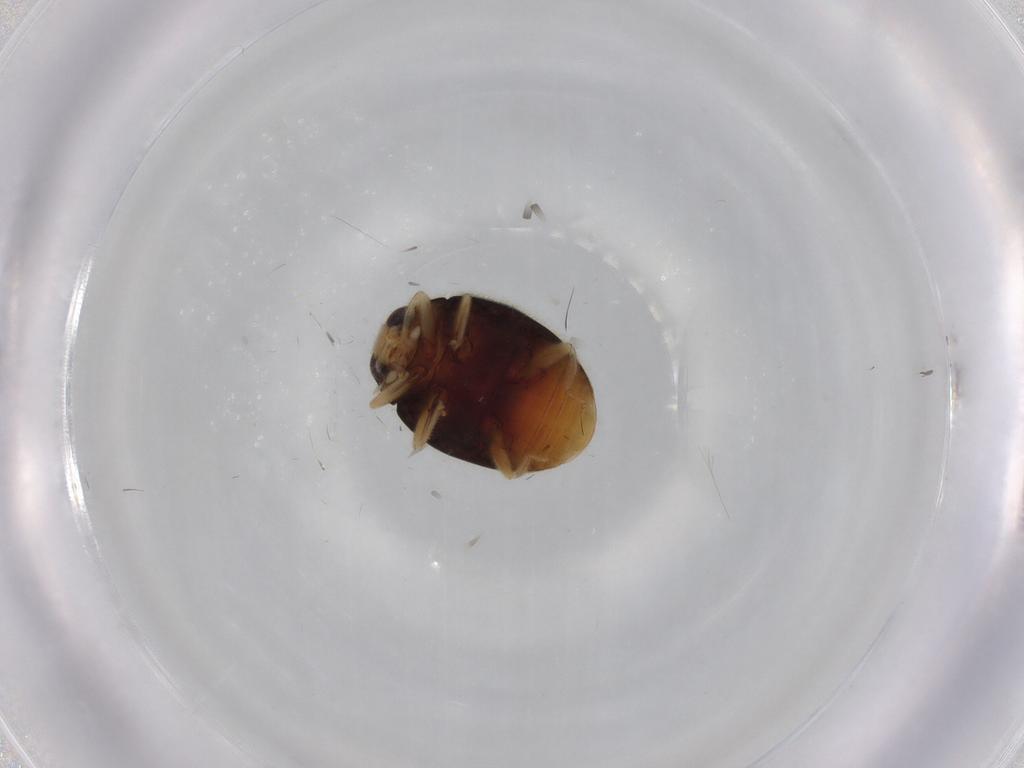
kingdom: Animalia
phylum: Arthropoda
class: Insecta
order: Coleoptera
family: Coccinellidae
